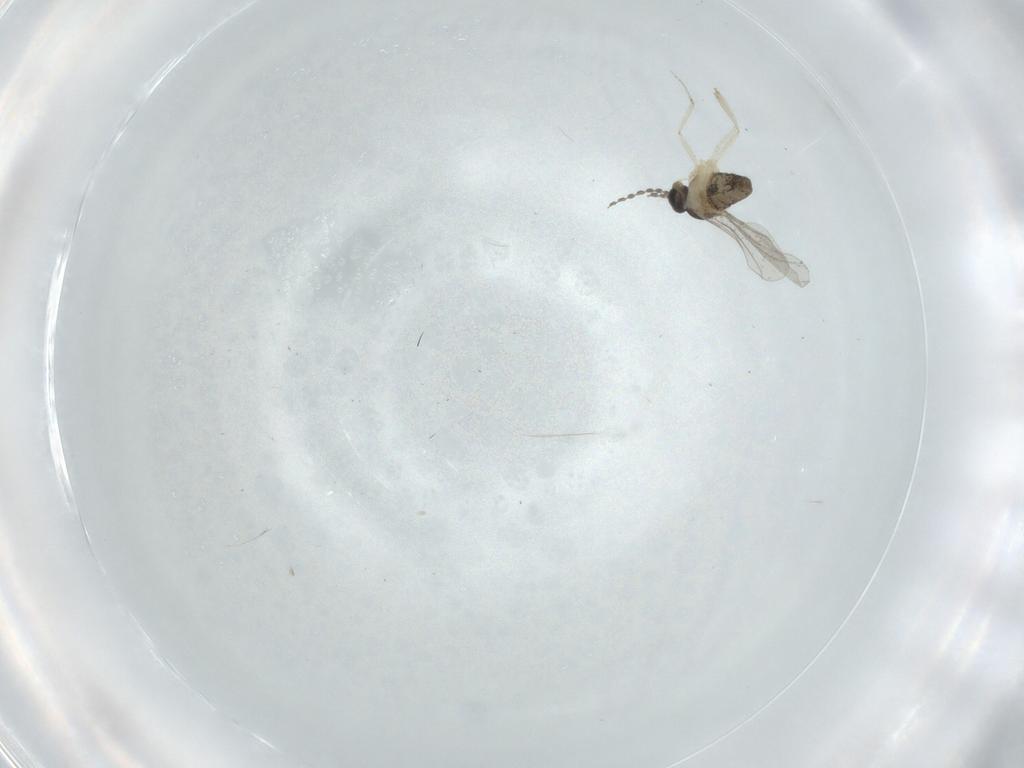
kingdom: Animalia
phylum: Arthropoda
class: Insecta
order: Diptera
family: Cecidomyiidae
